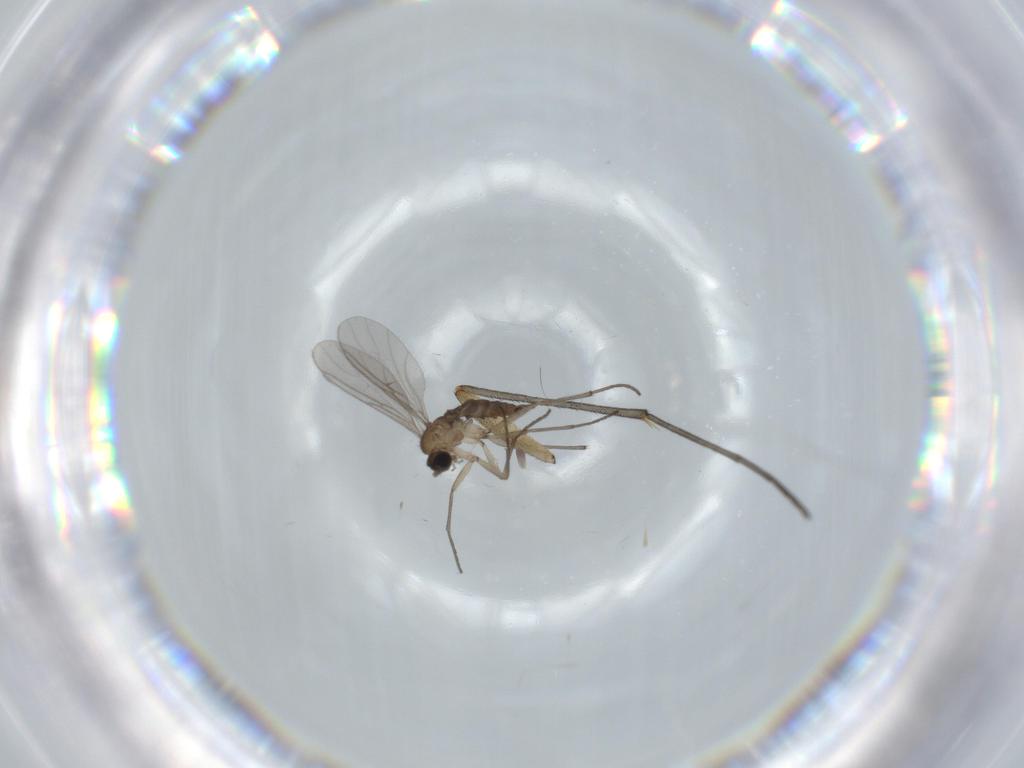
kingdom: Animalia
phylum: Arthropoda
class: Insecta
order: Diptera
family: Sciaridae
